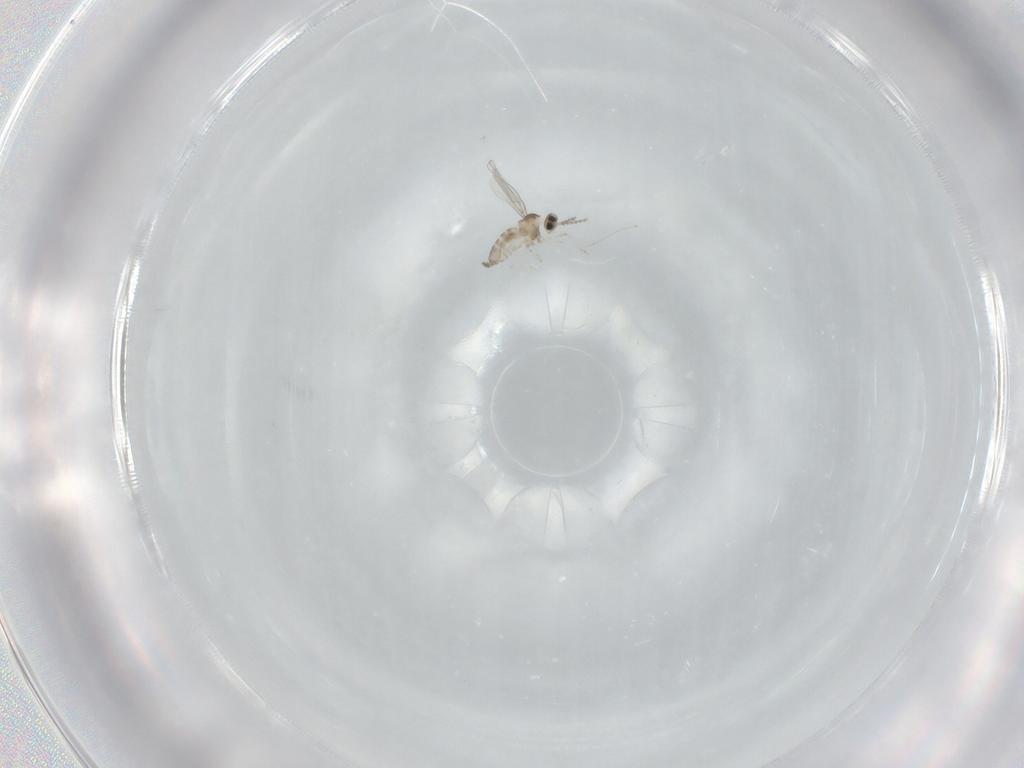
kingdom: Animalia
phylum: Arthropoda
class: Insecta
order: Diptera
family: Cecidomyiidae
